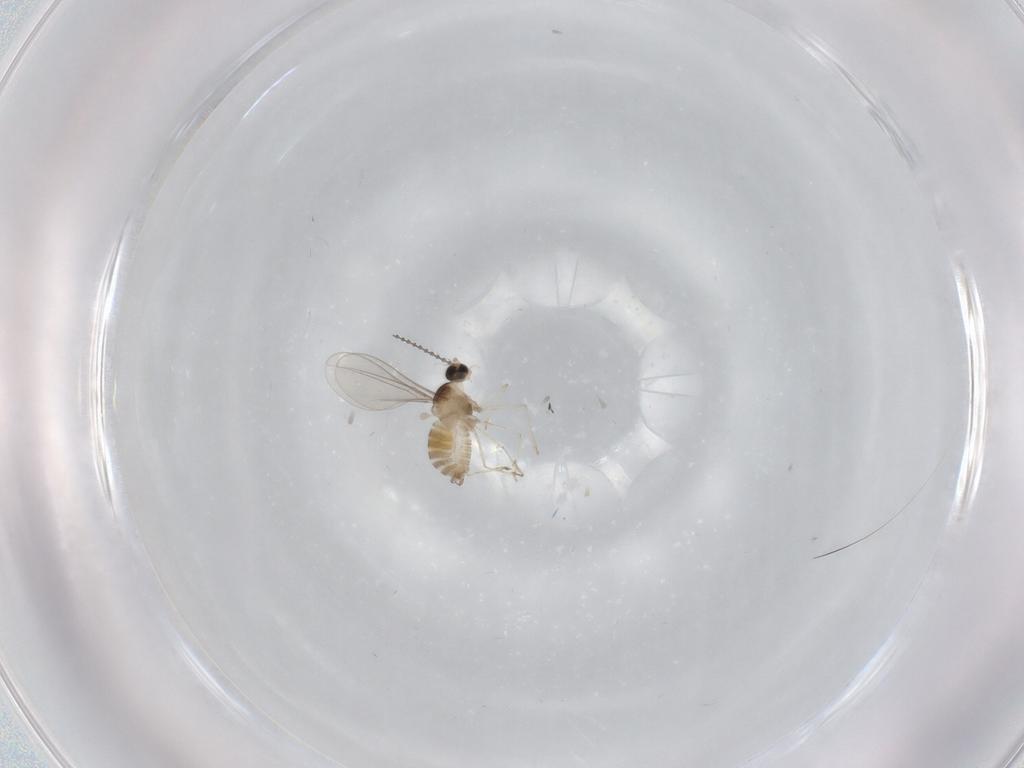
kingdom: Animalia
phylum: Arthropoda
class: Insecta
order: Diptera
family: Cecidomyiidae
